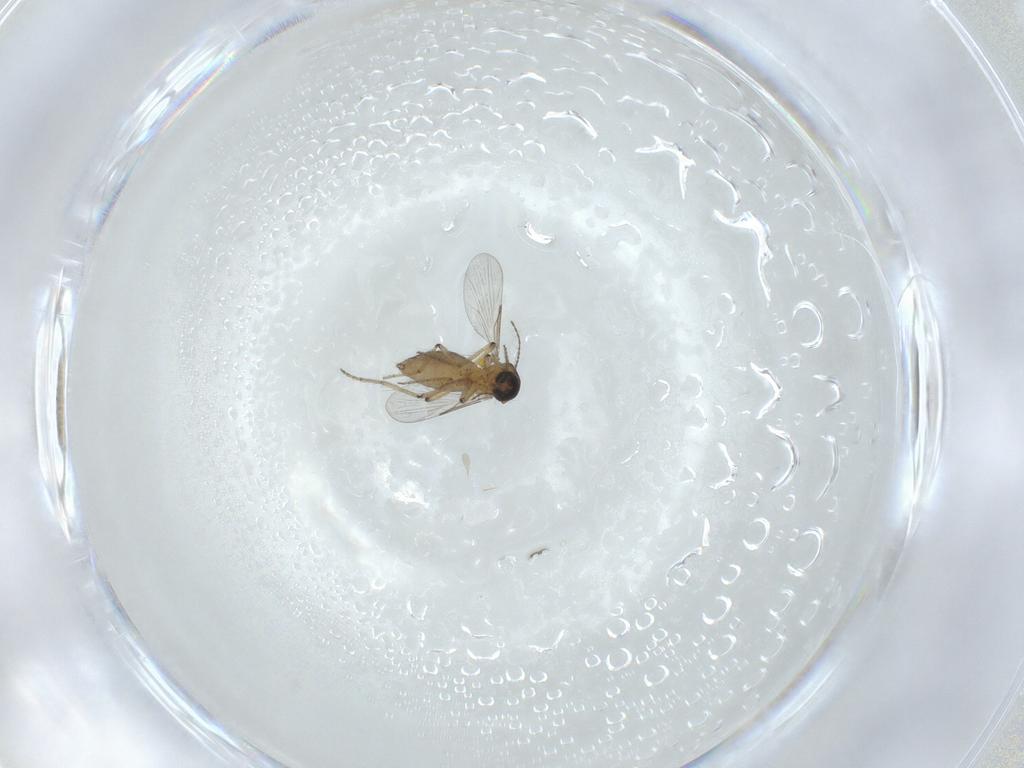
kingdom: Animalia
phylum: Arthropoda
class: Insecta
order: Diptera
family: Ceratopogonidae
